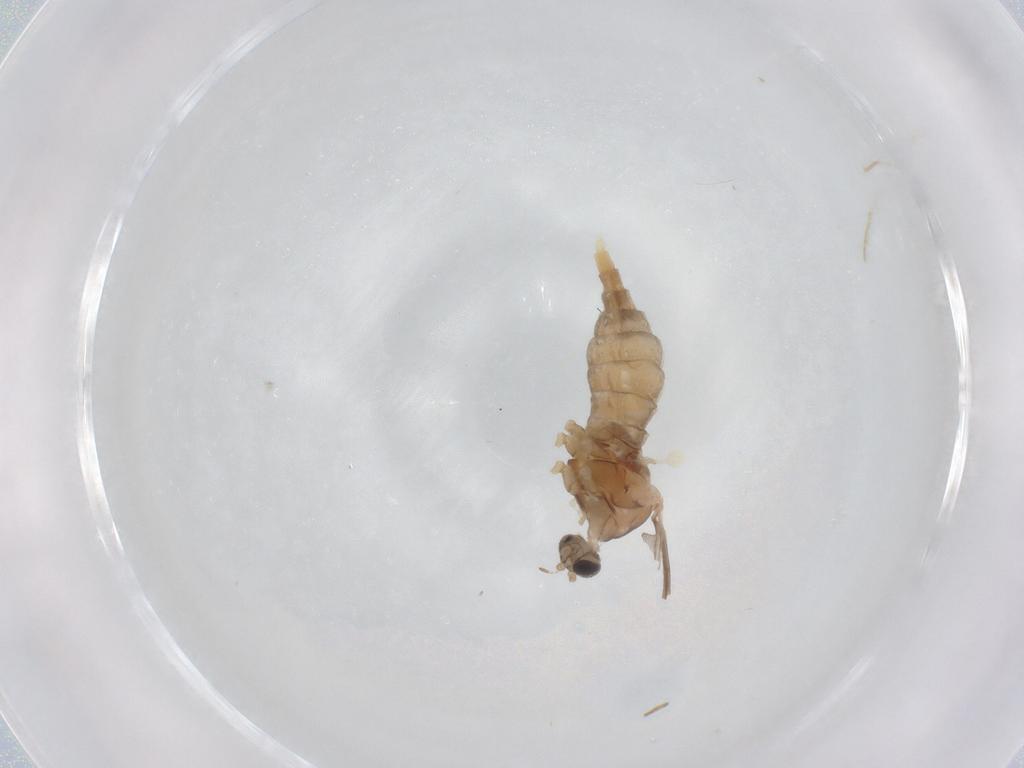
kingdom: Animalia
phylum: Arthropoda
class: Insecta
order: Diptera
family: Cecidomyiidae
